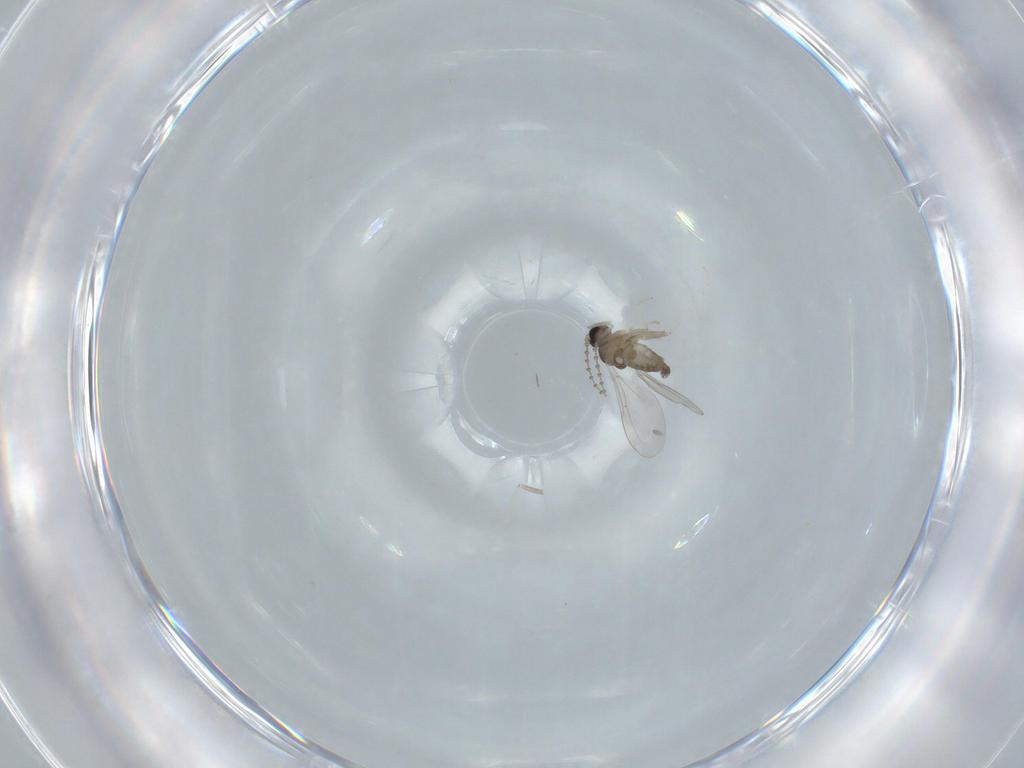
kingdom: Animalia
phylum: Arthropoda
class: Insecta
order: Diptera
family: Cecidomyiidae
